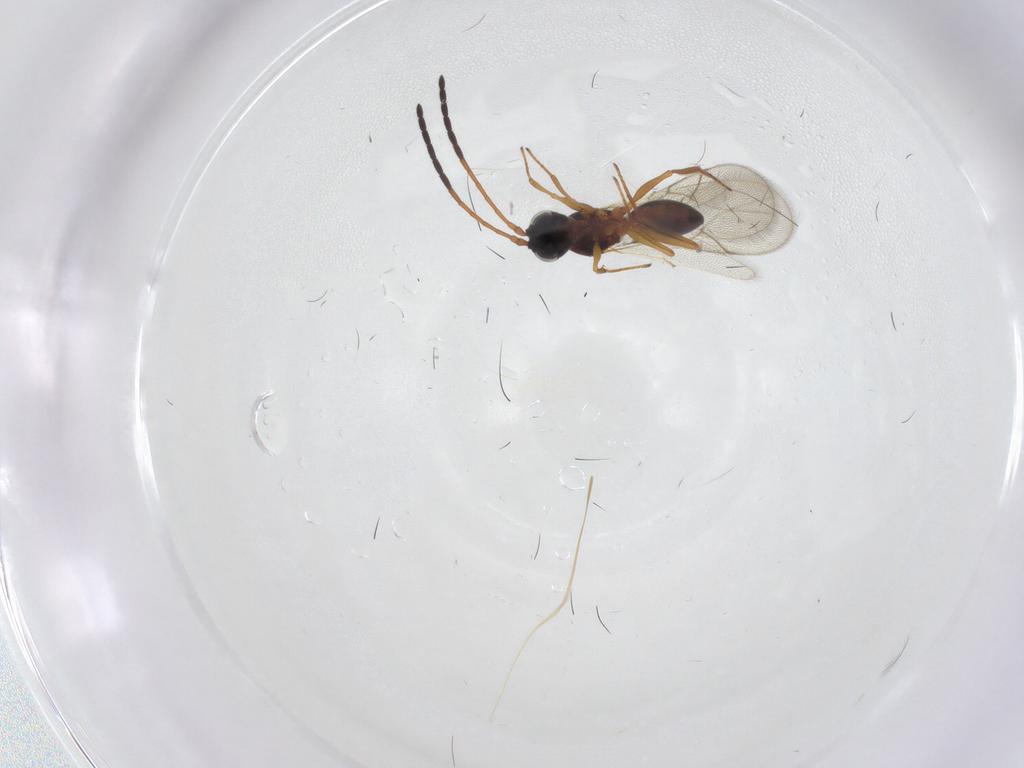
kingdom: Animalia
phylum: Arthropoda
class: Insecta
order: Hymenoptera
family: Figitidae
